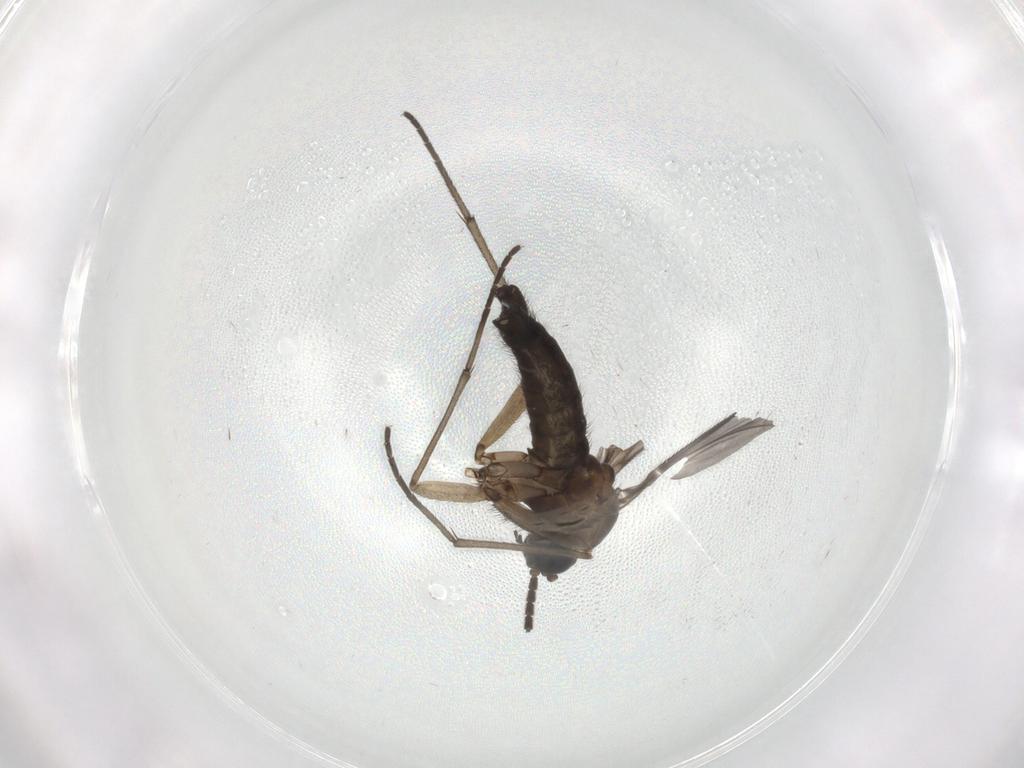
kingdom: Animalia
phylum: Arthropoda
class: Insecta
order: Diptera
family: Sciaridae
